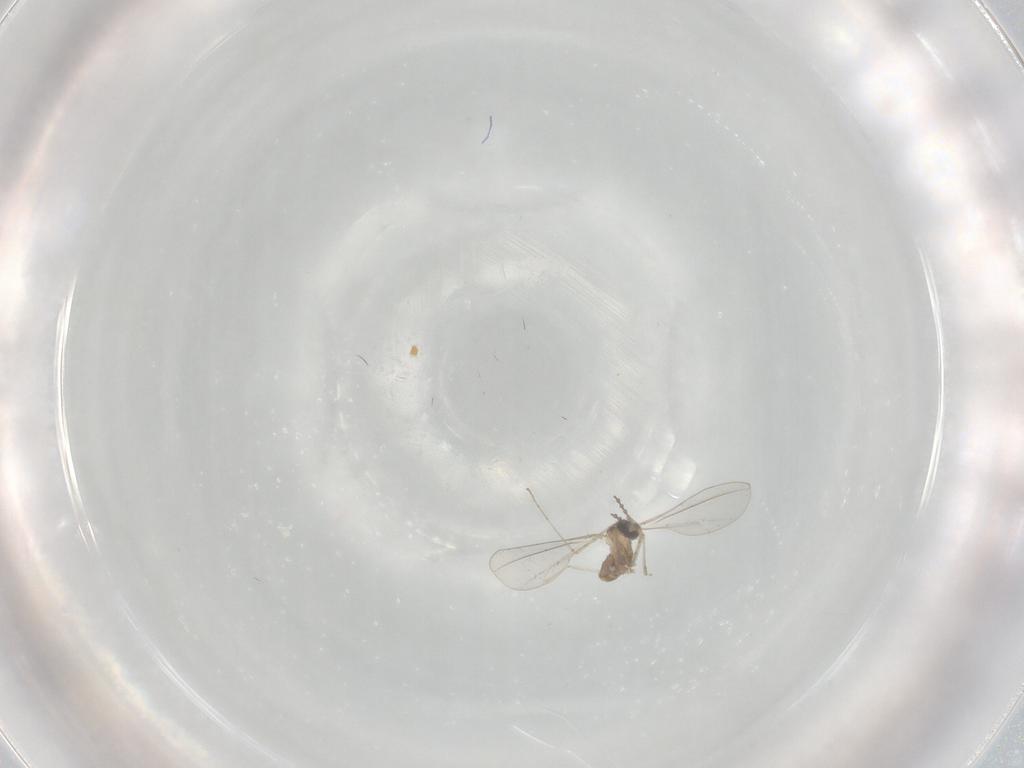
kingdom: Animalia
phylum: Arthropoda
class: Insecta
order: Diptera
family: Cecidomyiidae
